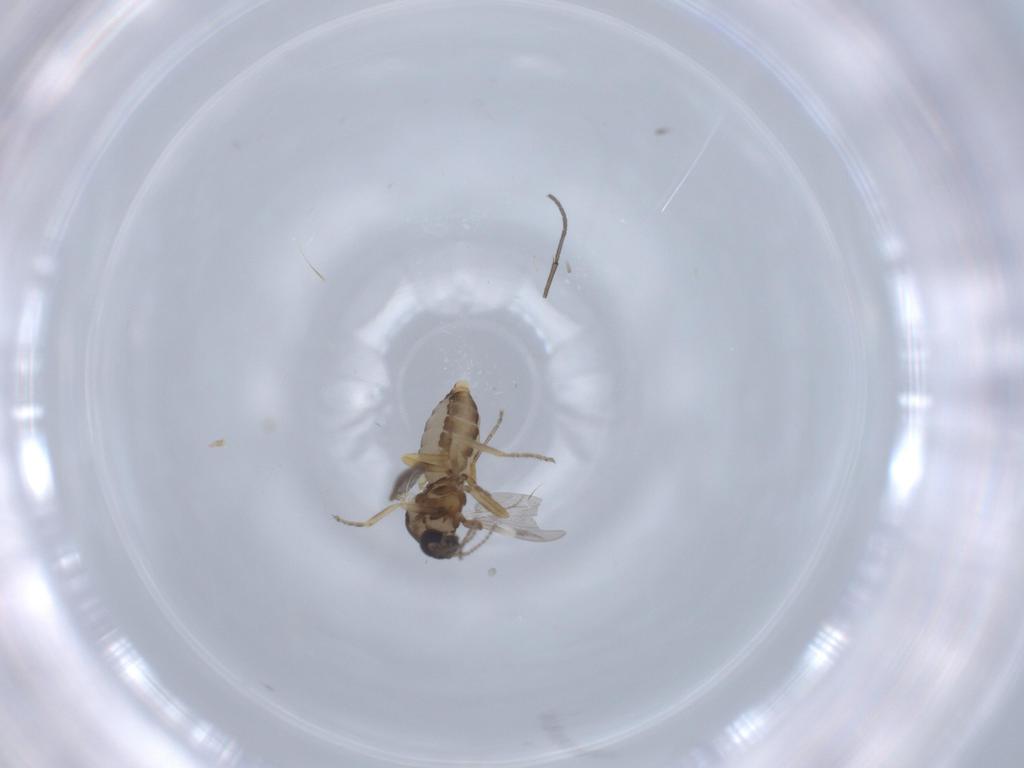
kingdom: Animalia
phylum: Arthropoda
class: Insecta
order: Diptera
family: Ceratopogonidae
